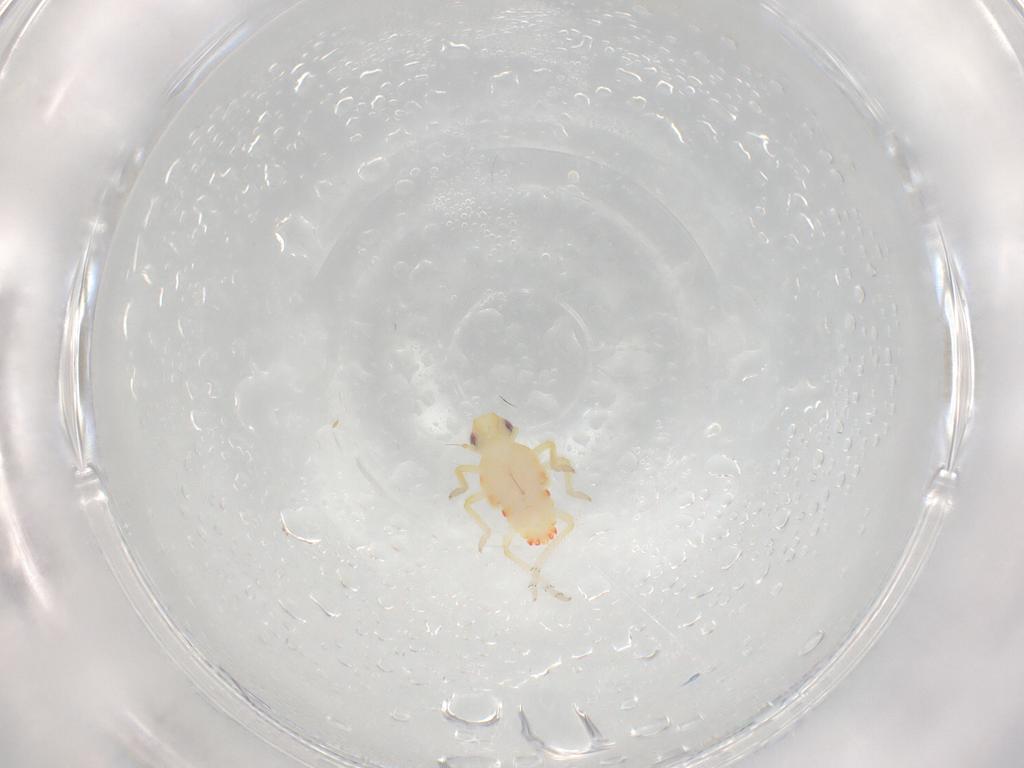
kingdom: Animalia
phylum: Arthropoda
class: Insecta
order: Hemiptera
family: Tropiduchidae
